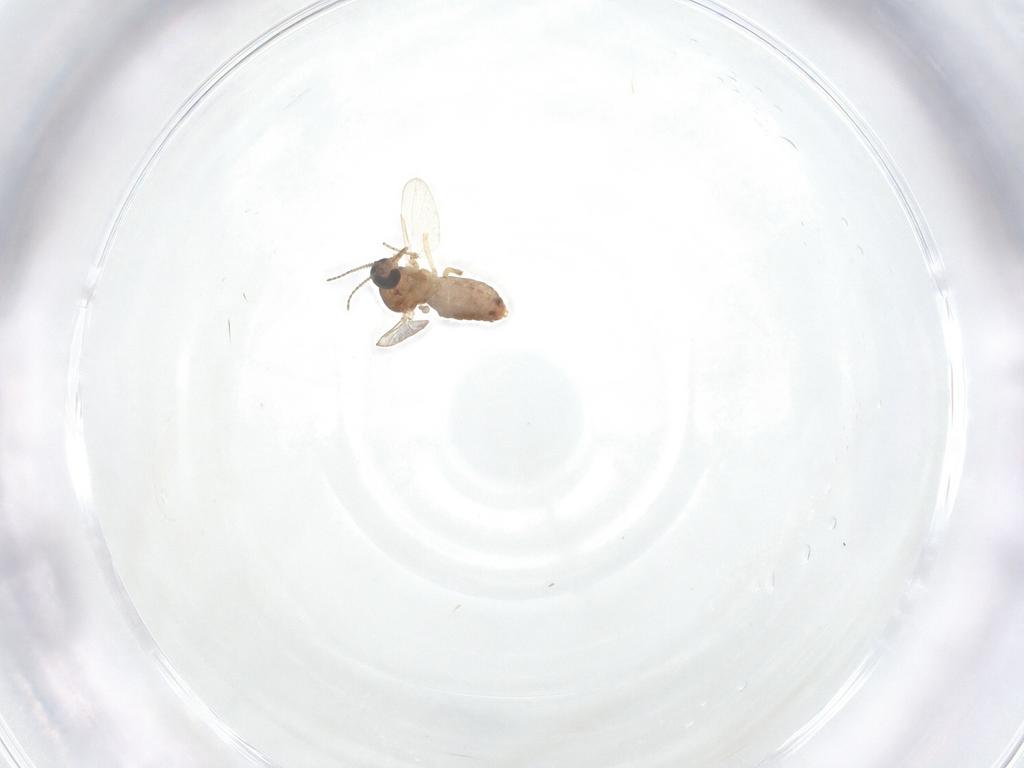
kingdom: Animalia
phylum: Arthropoda
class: Insecta
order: Diptera
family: Ceratopogonidae
